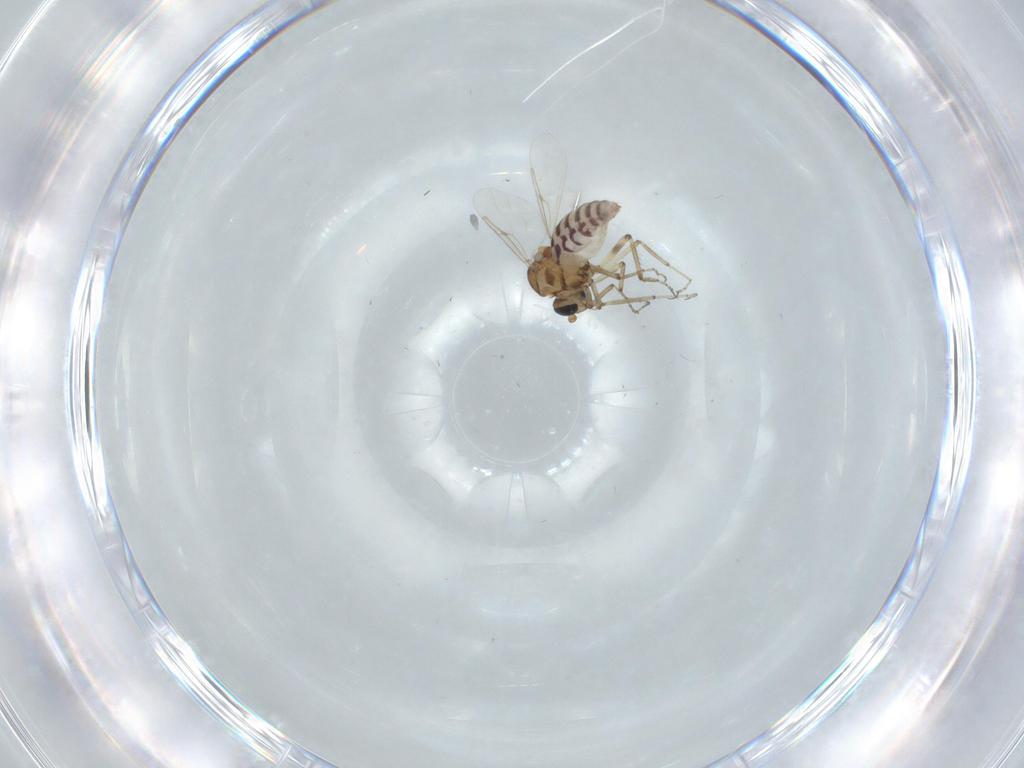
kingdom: Animalia
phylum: Arthropoda
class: Insecta
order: Diptera
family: Ceratopogonidae
